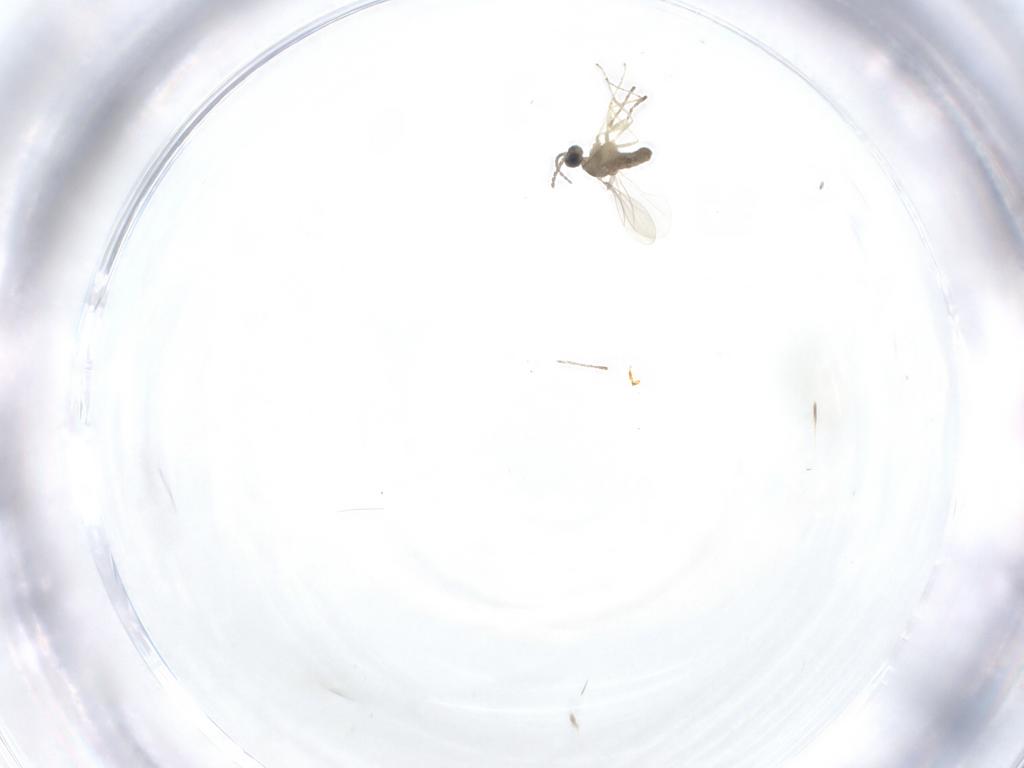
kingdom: Animalia
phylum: Arthropoda
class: Insecta
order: Diptera
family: Cecidomyiidae
